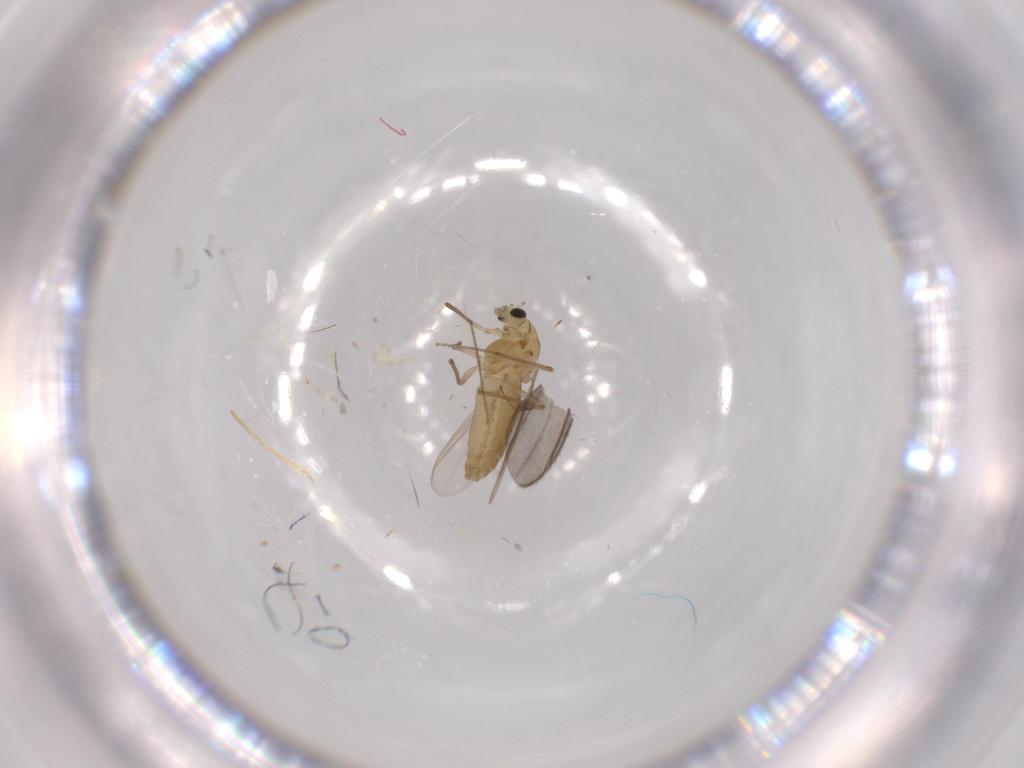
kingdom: Animalia
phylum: Arthropoda
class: Insecta
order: Diptera
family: Chironomidae
